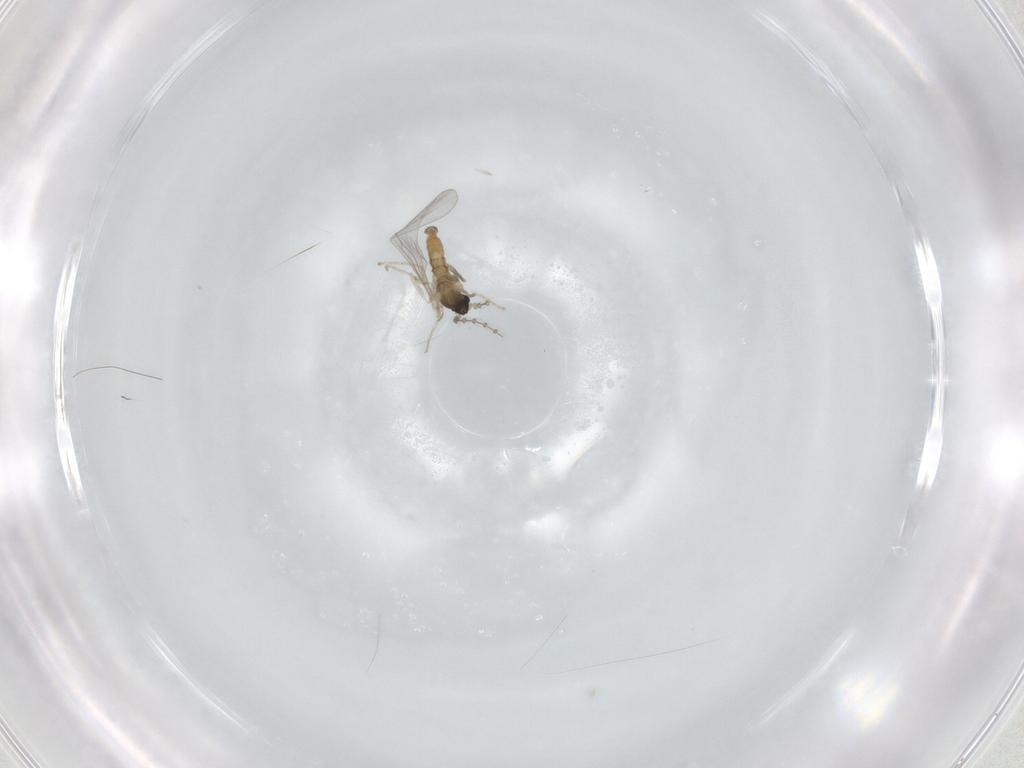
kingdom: Animalia
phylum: Arthropoda
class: Insecta
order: Diptera
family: Cecidomyiidae
